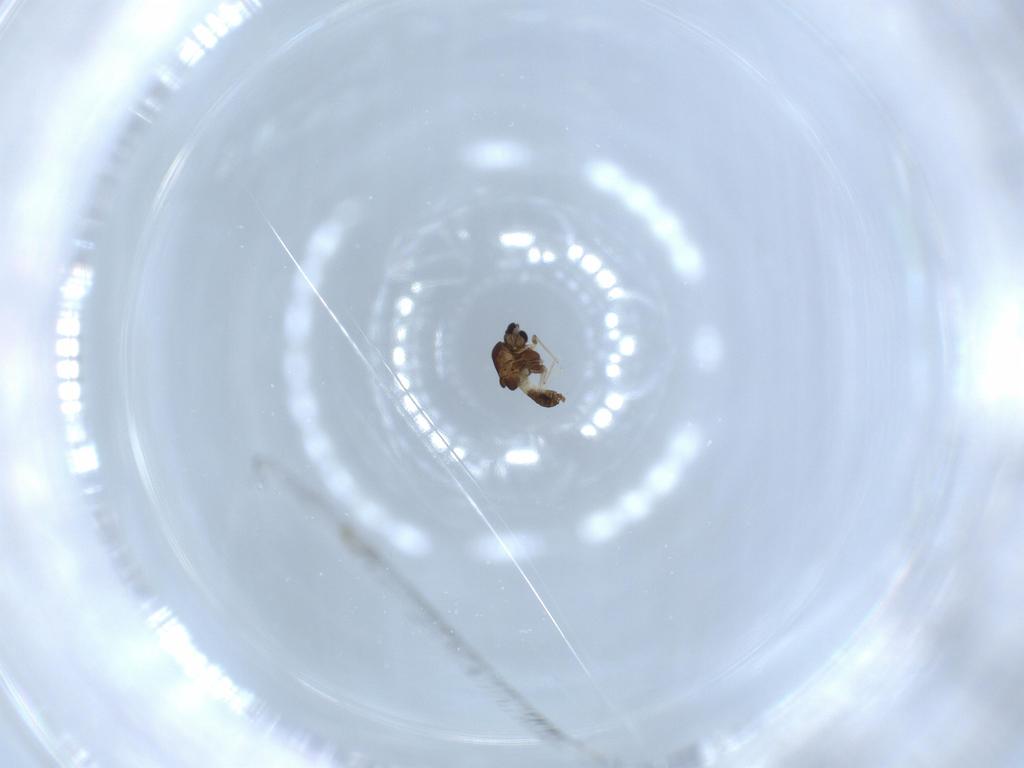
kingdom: Animalia
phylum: Arthropoda
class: Insecta
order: Diptera
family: Chironomidae
